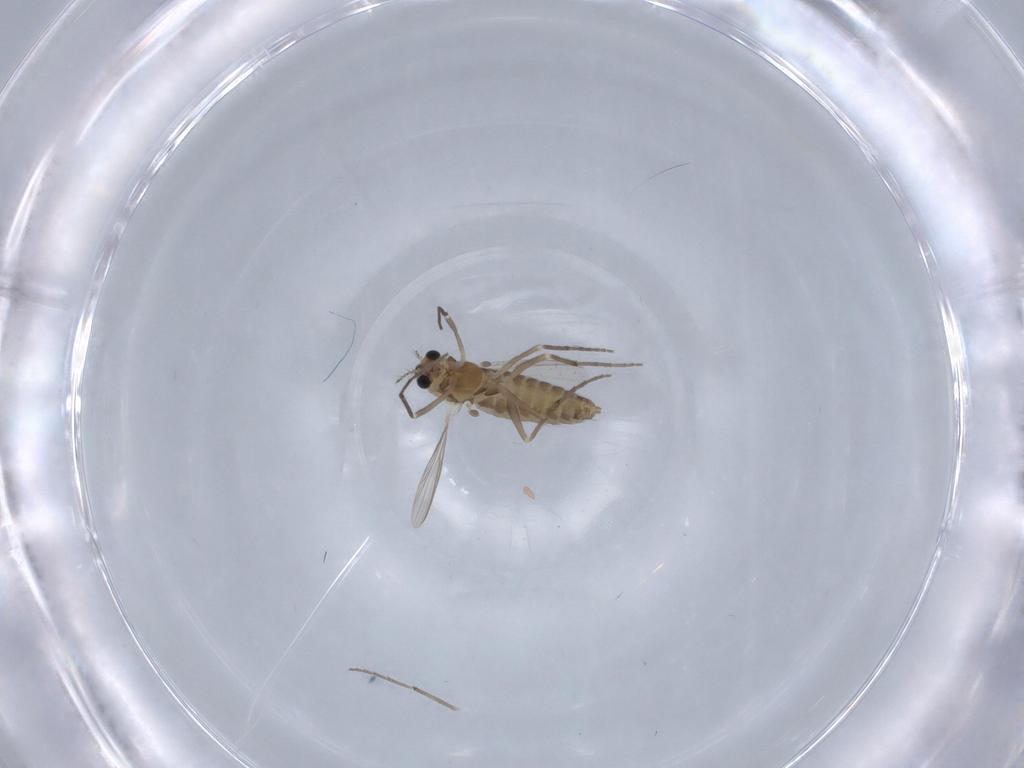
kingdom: Animalia
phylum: Arthropoda
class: Insecta
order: Diptera
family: Chironomidae
